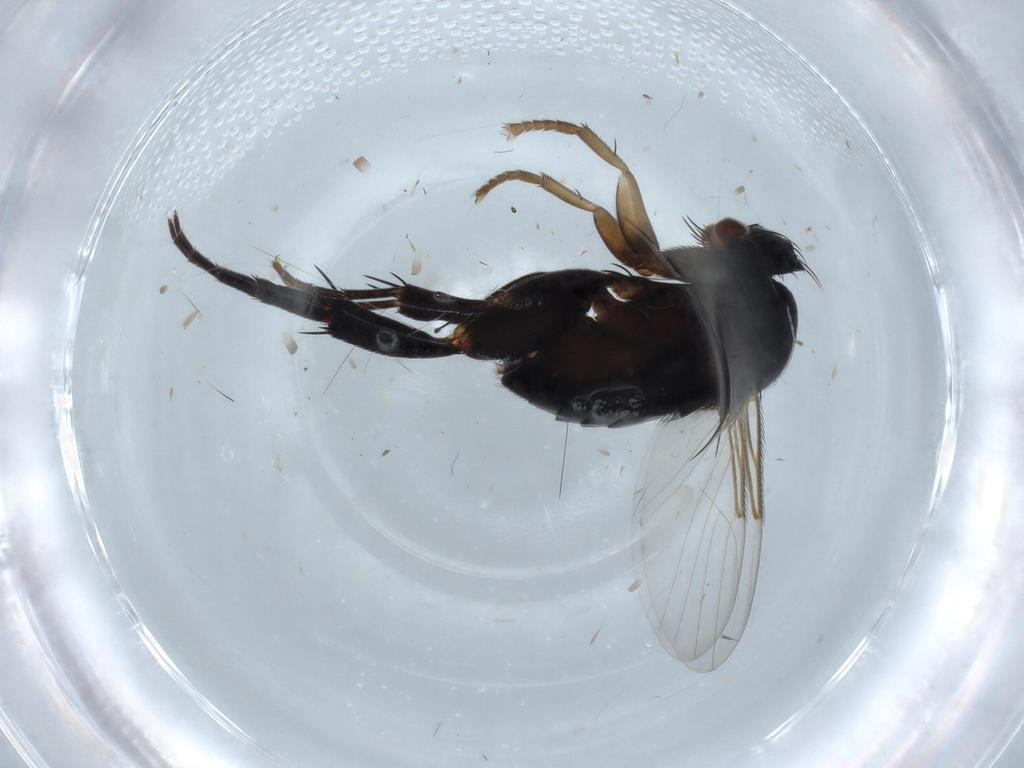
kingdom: Animalia
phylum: Arthropoda
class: Insecta
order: Diptera
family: Phoridae
